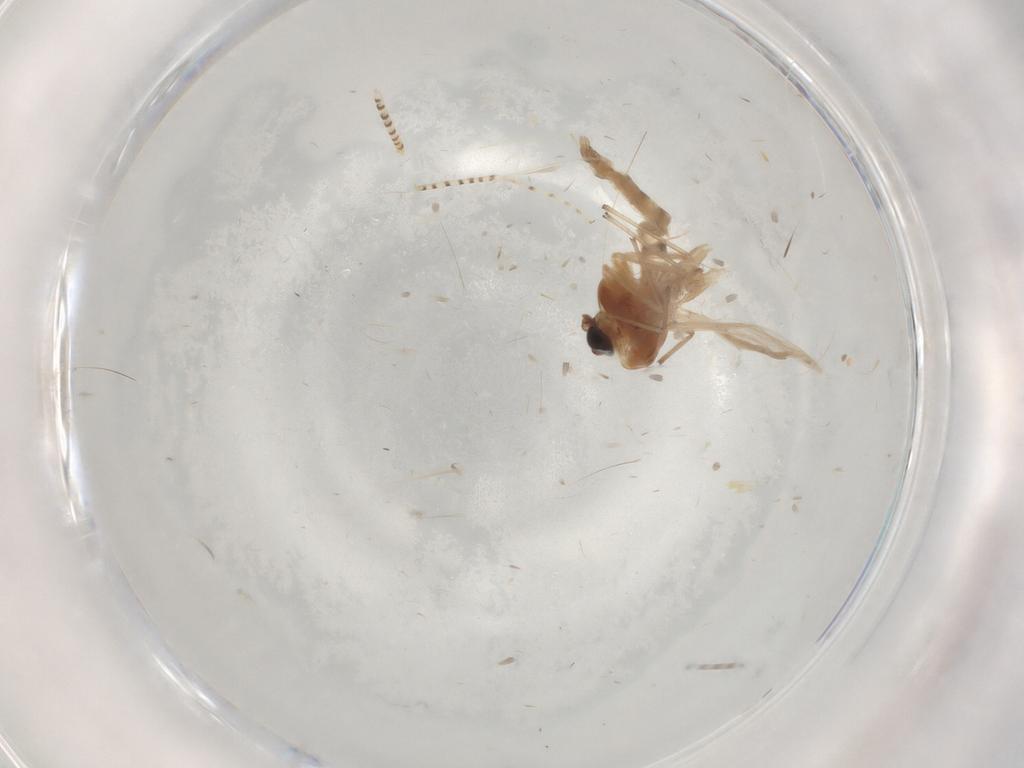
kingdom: Animalia
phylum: Arthropoda
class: Insecta
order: Diptera
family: Chaoboridae
